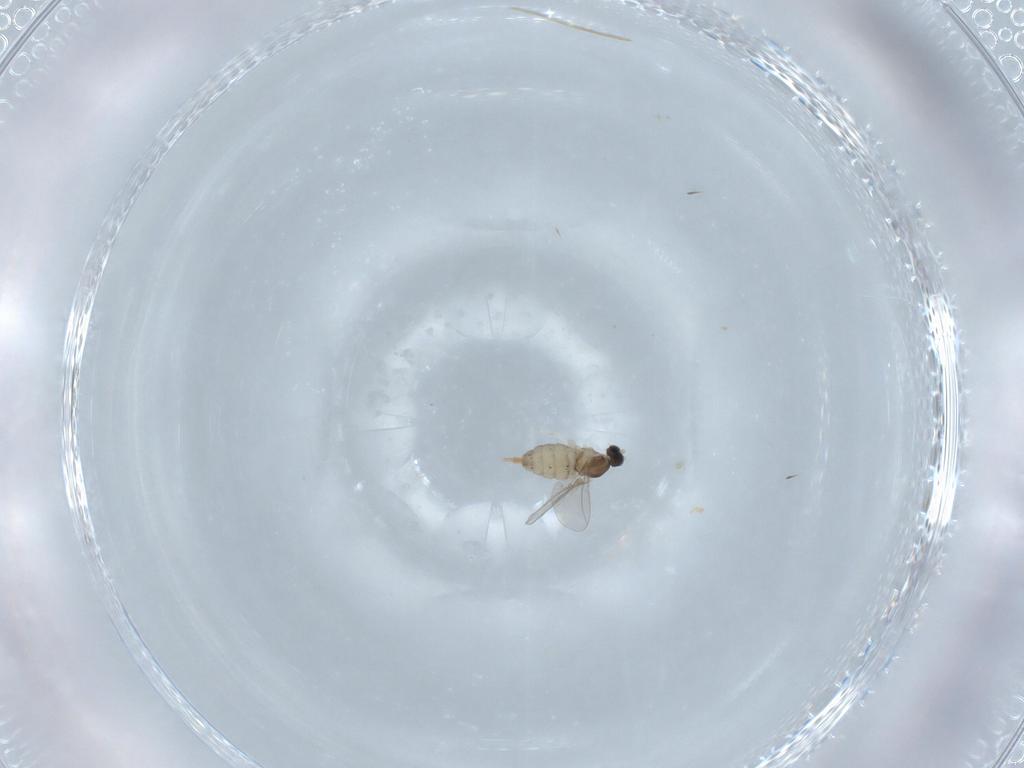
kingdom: Animalia
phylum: Arthropoda
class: Insecta
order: Diptera
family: Cecidomyiidae
